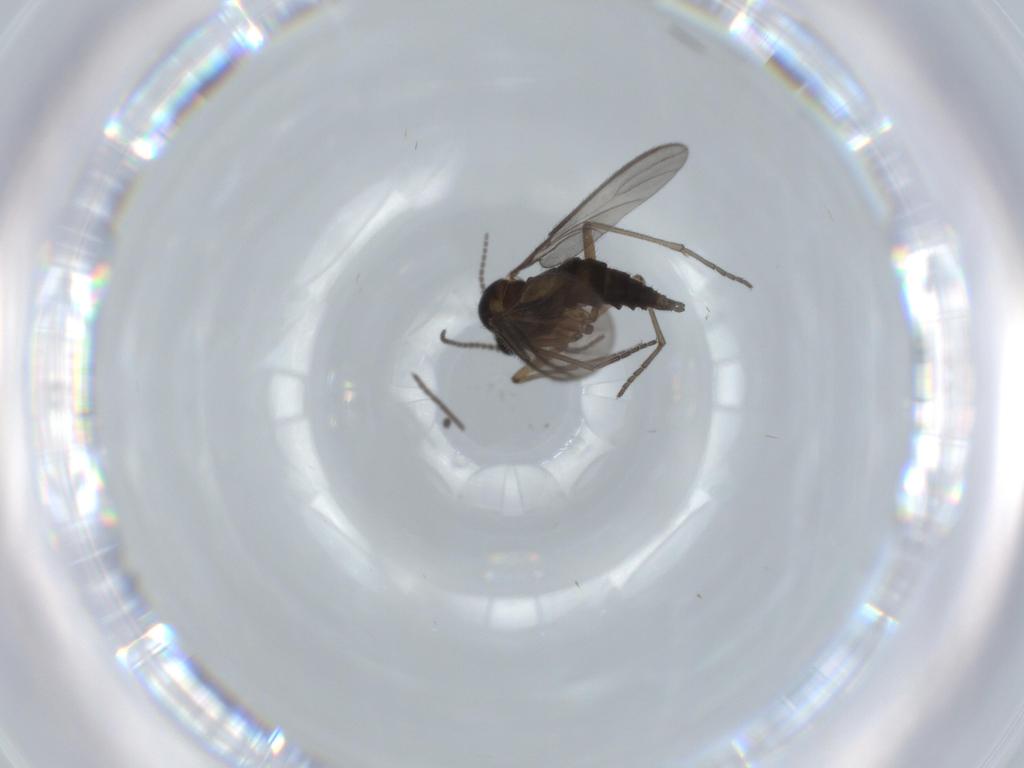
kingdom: Animalia
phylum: Arthropoda
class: Insecta
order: Diptera
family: Sciaridae
